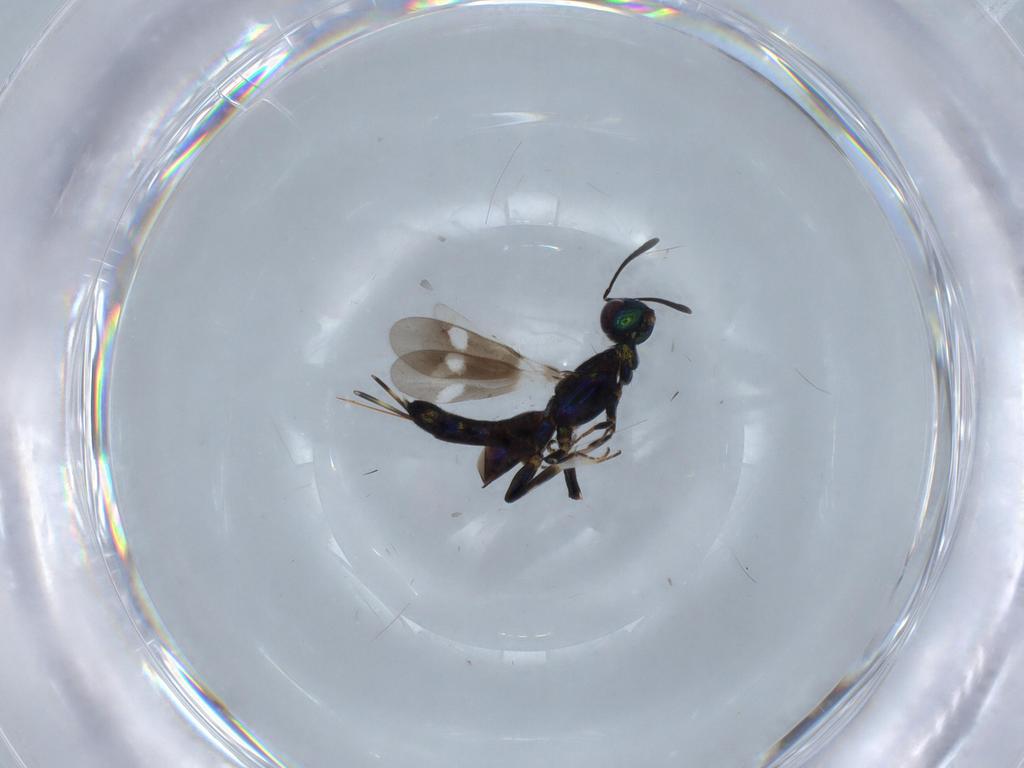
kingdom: Animalia
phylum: Arthropoda
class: Insecta
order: Hymenoptera
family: Eupelmidae
